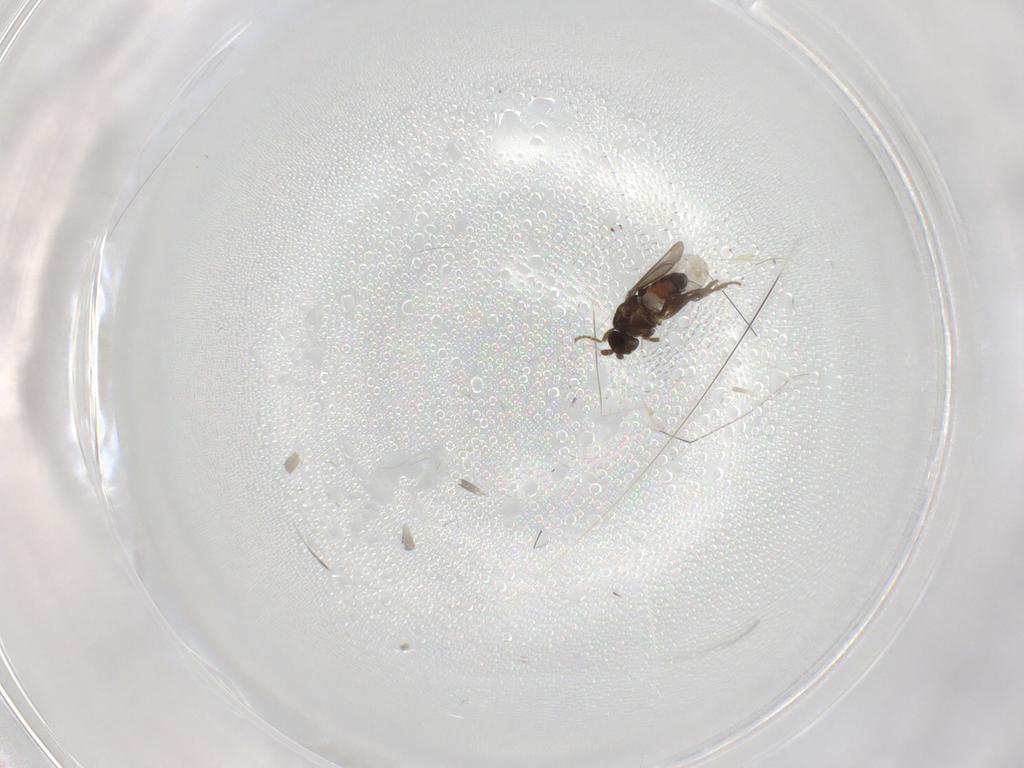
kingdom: Animalia
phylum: Arthropoda
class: Insecta
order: Diptera
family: Sphaeroceridae
